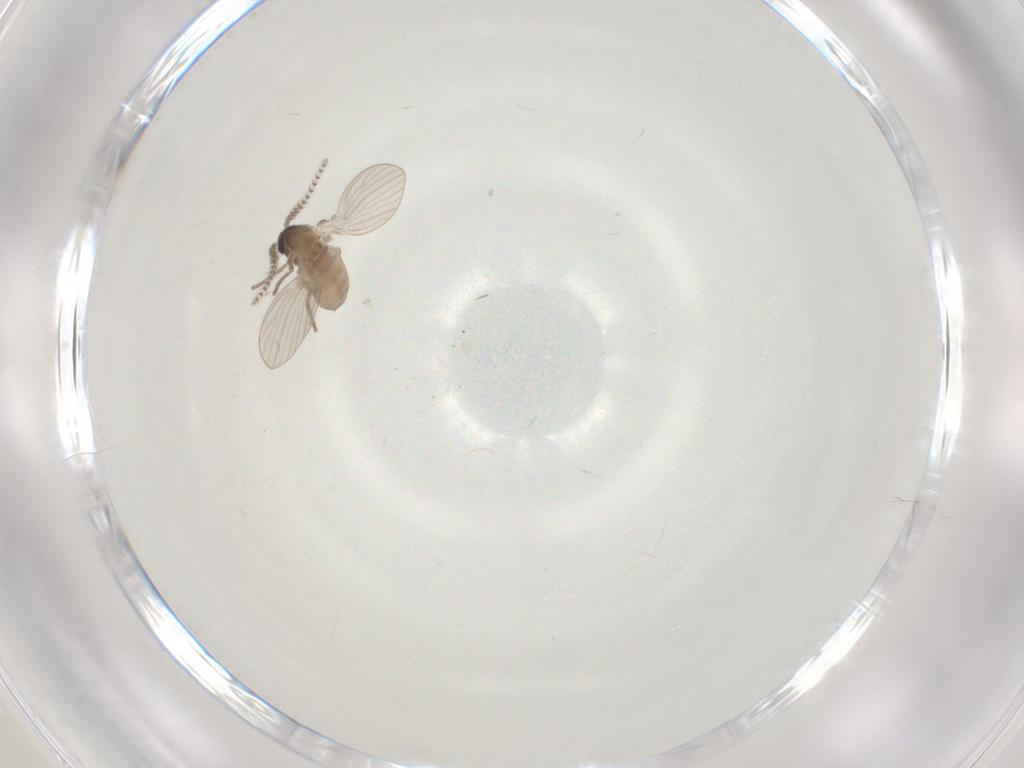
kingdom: Animalia
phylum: Arthropoda
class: Insecta
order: Diptera
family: Psychodidae
